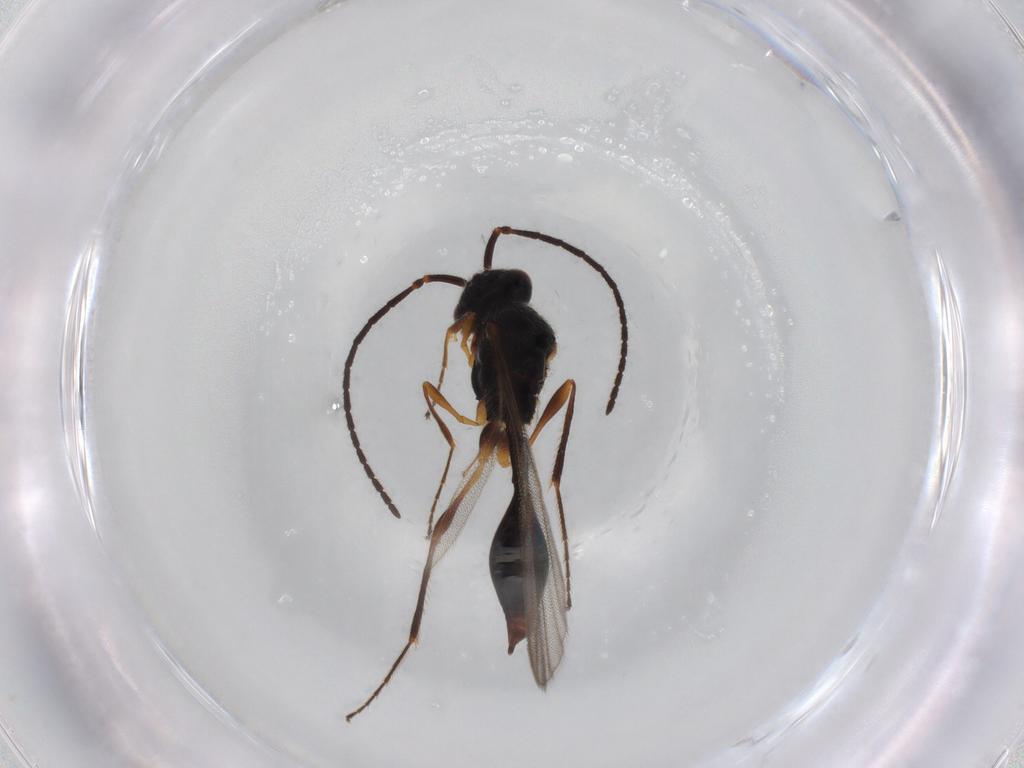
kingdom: Animalia
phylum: Arthropoda
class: Insecta
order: Hymenoptera
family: Diapriidae
